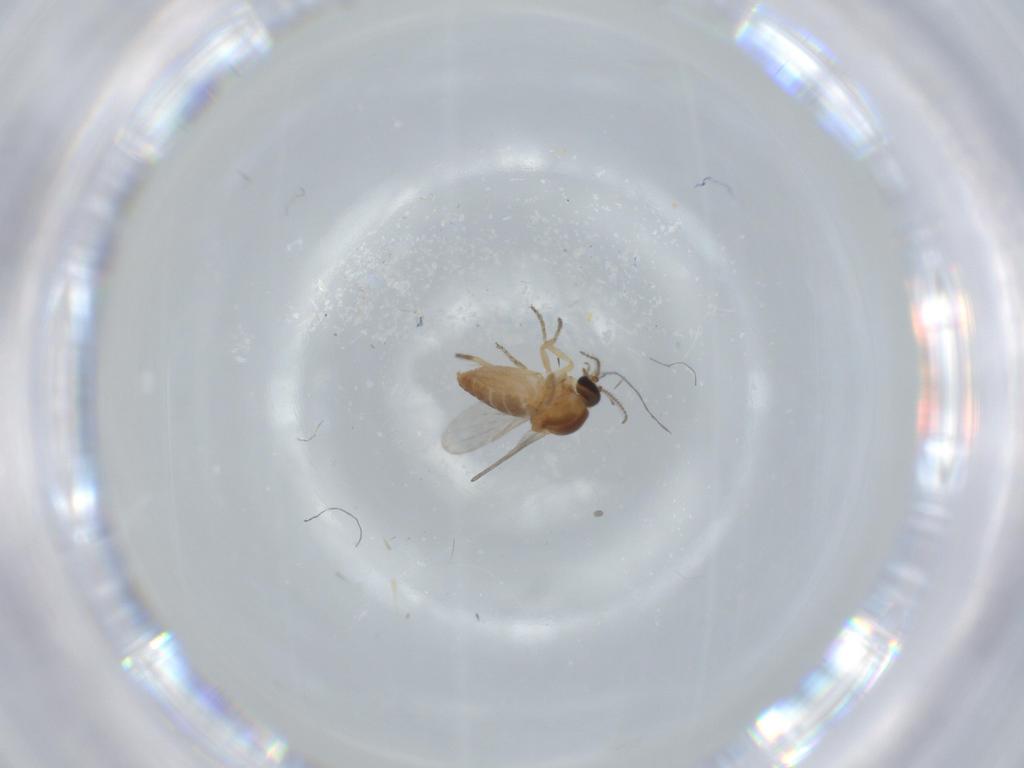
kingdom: Animalia
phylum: Arthropoda
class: Insecta
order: Diptera
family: Ceratopogonidae
